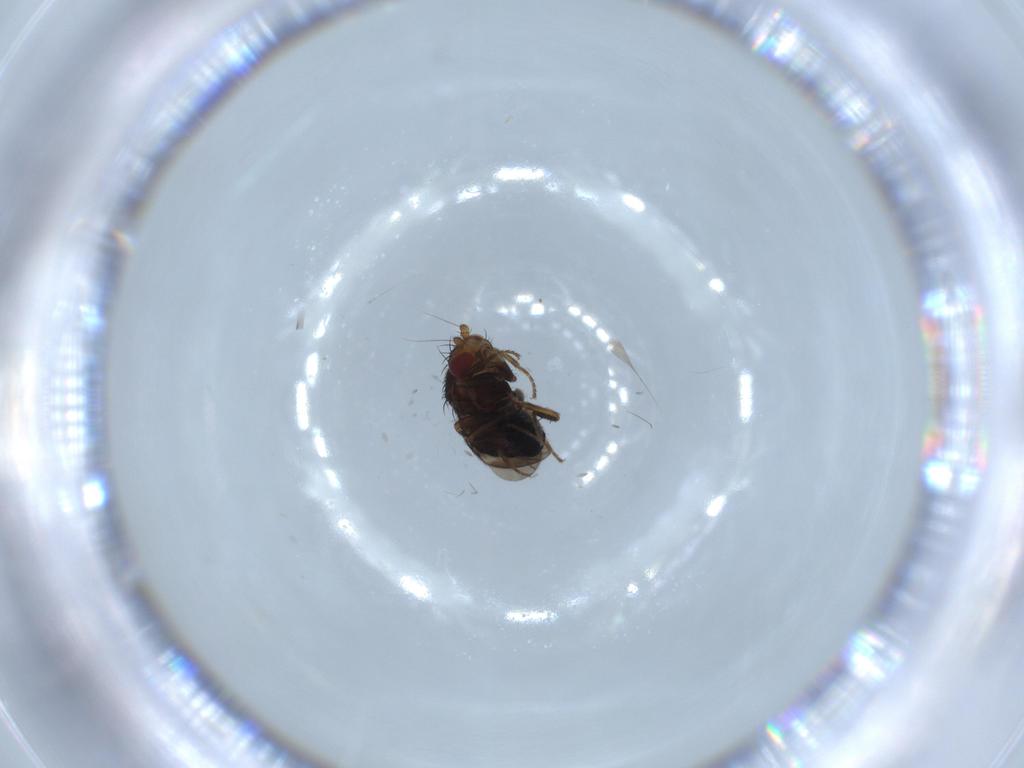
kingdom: Animalia
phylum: Arthropoda
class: Insecta
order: Diptera
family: Sphaeroceridae
